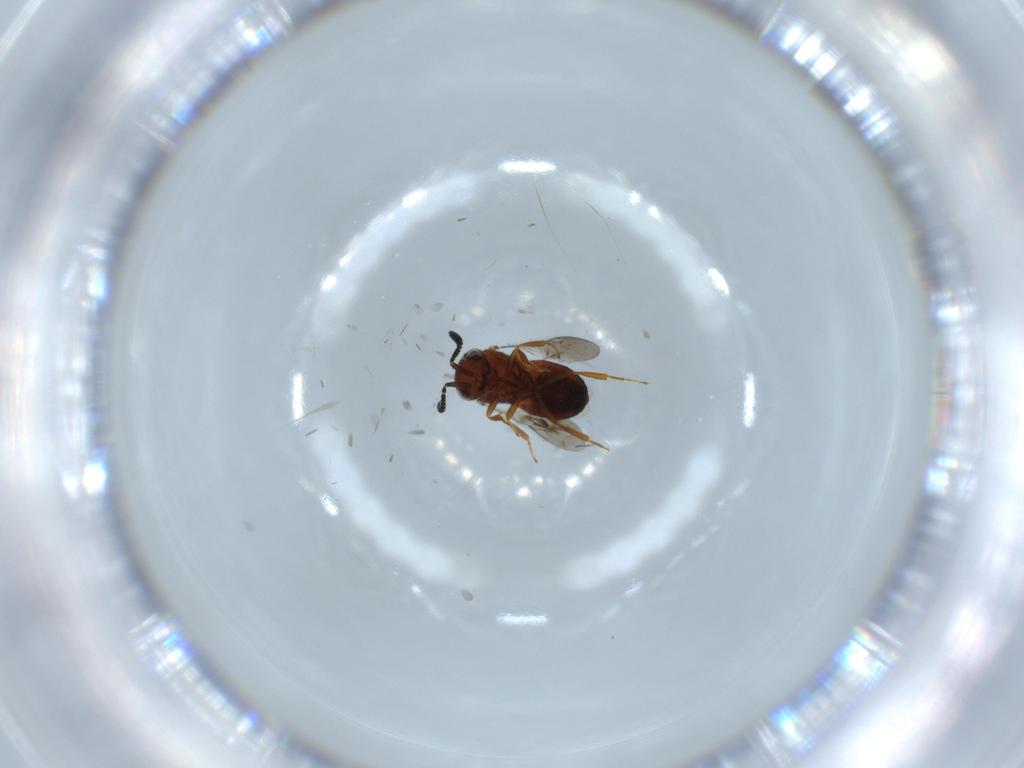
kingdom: Animalia
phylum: Arthropoda
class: Insecta
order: Hymenoptera
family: Scelionidae
